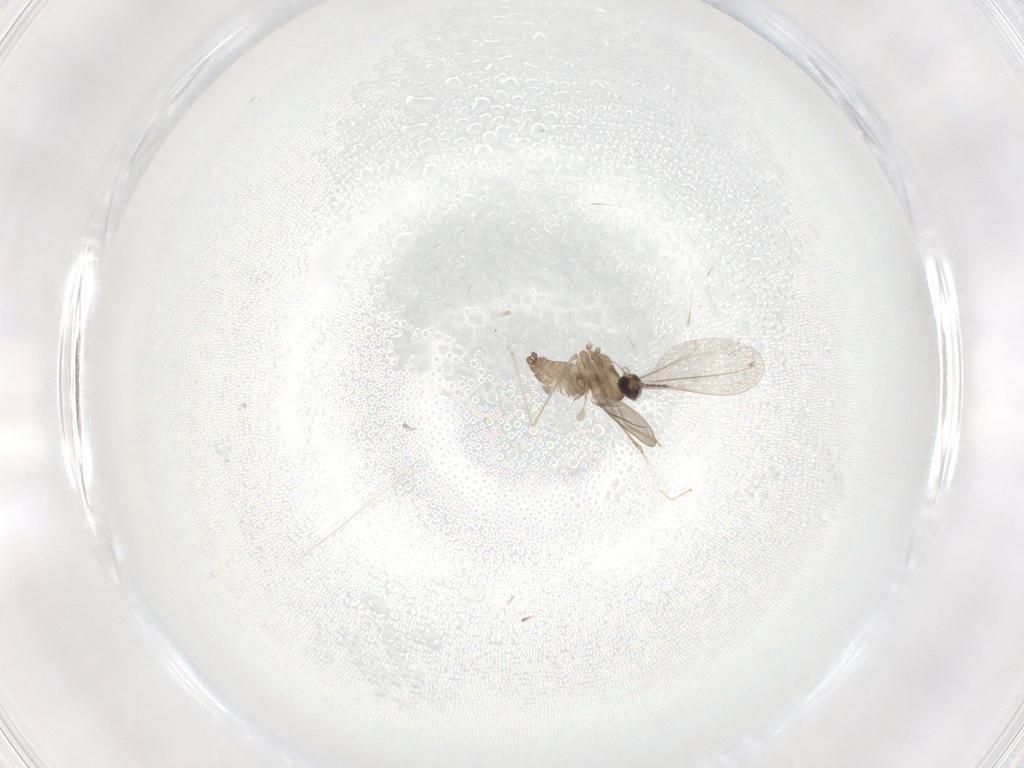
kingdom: Animalia
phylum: Arthropoda
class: Insecta
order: Diptera
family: Cecidomyiidae
